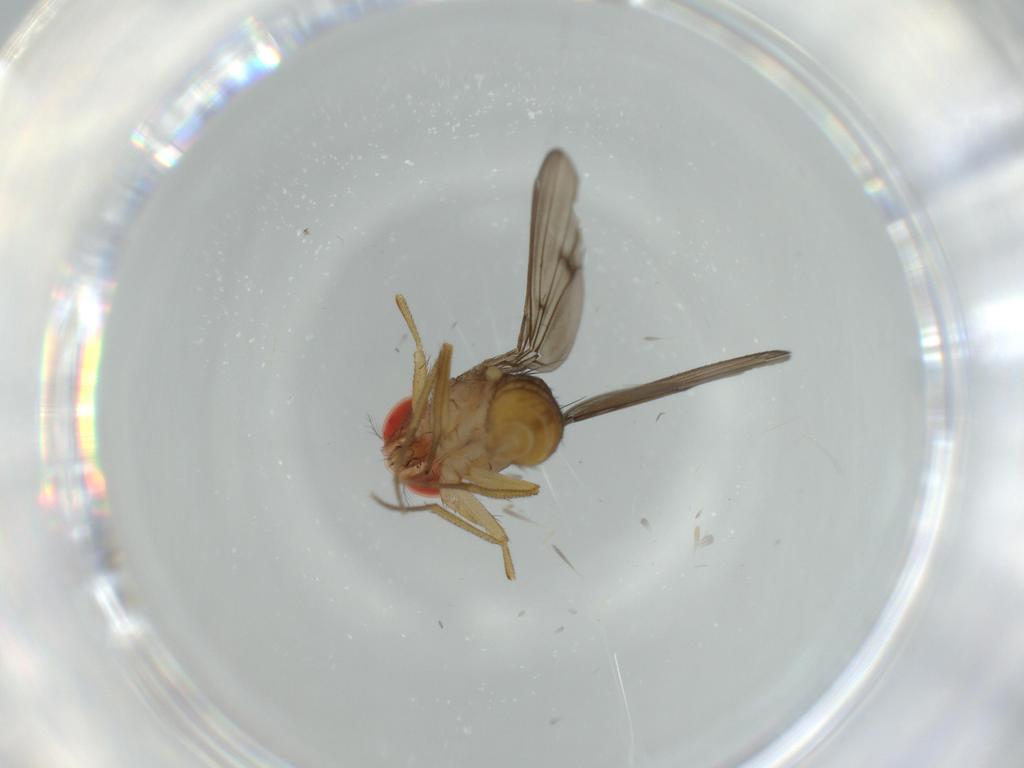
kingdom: Animalia
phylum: Arthropoda
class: Insecta
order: Diptera
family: Drosophilidae
